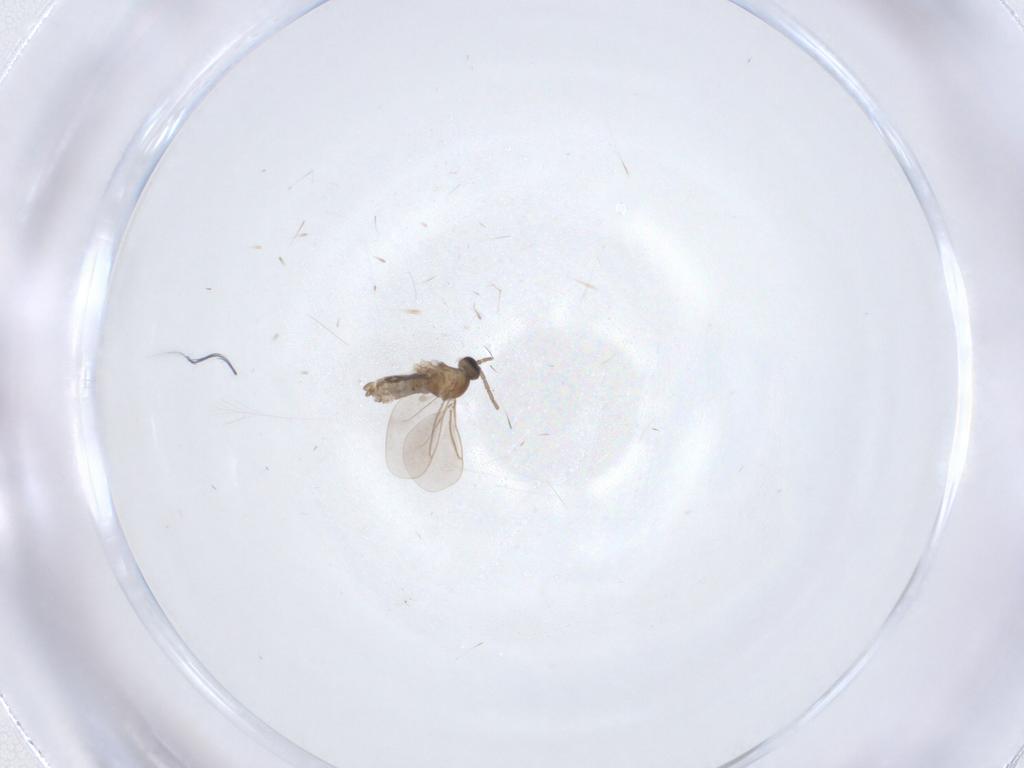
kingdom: Animalia
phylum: Arthropoda
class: Insecta
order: Diptera
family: Cecidomyiidae
